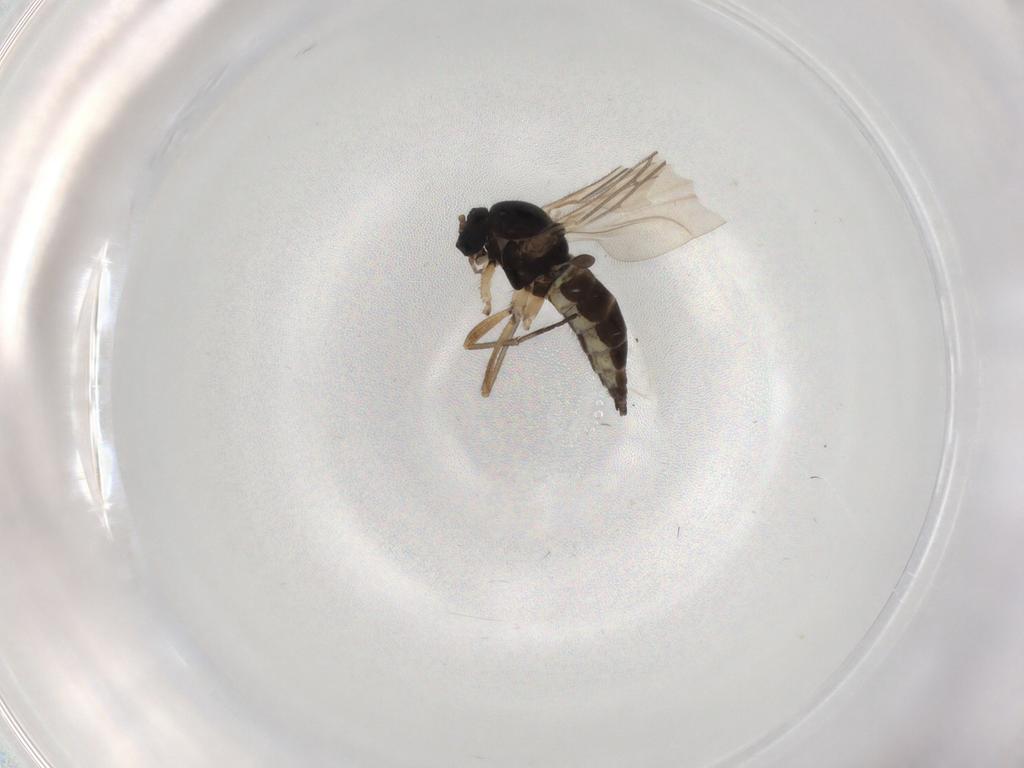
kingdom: Animalia
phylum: Arthropoda
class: Insecta
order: Diptera
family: Sciaridae
